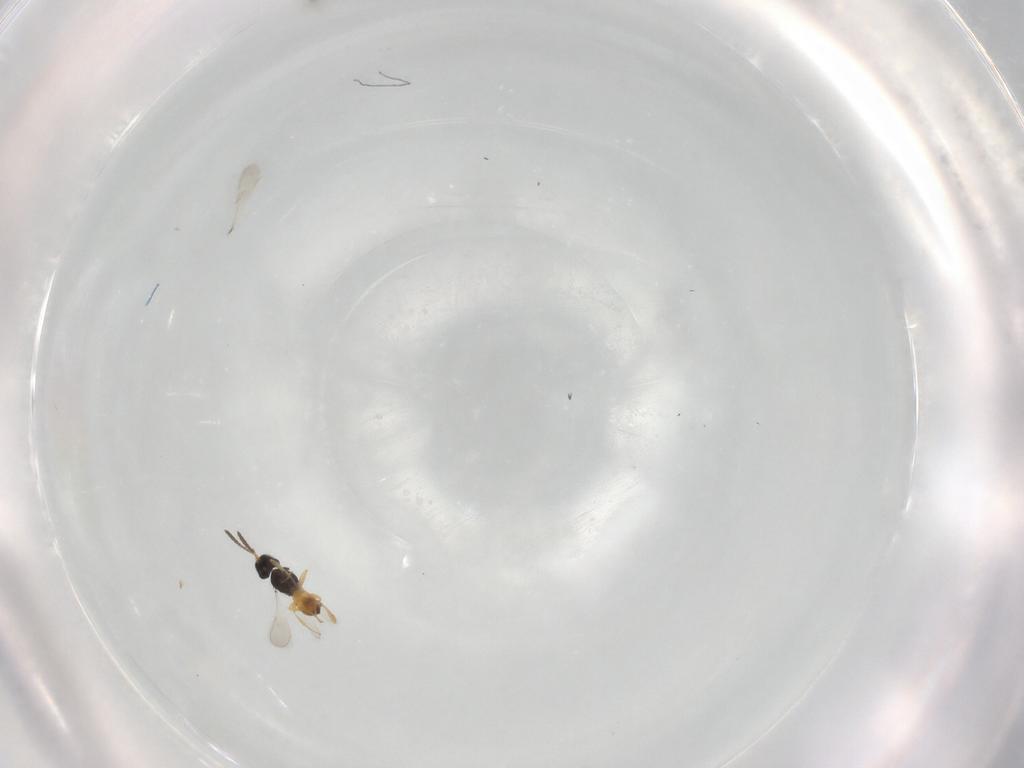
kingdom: Animalia
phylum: Arthropoda
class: Insecta
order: Hymenoptera
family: Scelionidae
